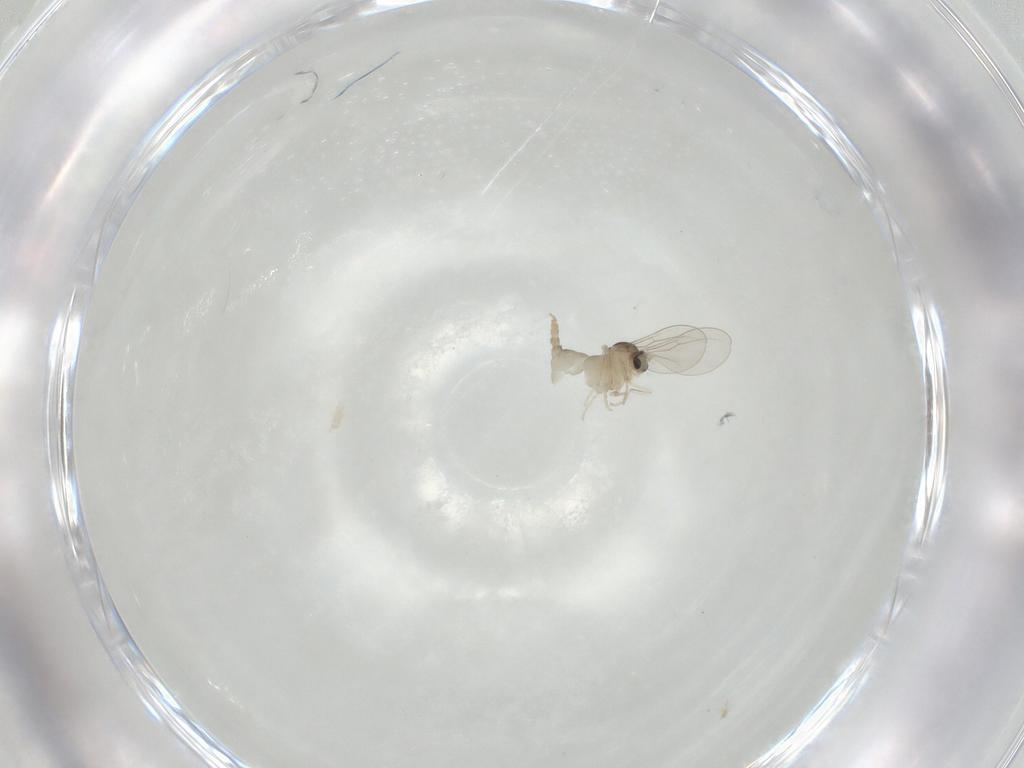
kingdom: Animalia
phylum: Arthropoda
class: Insecta
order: Diptera
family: Cecidomyiidae
